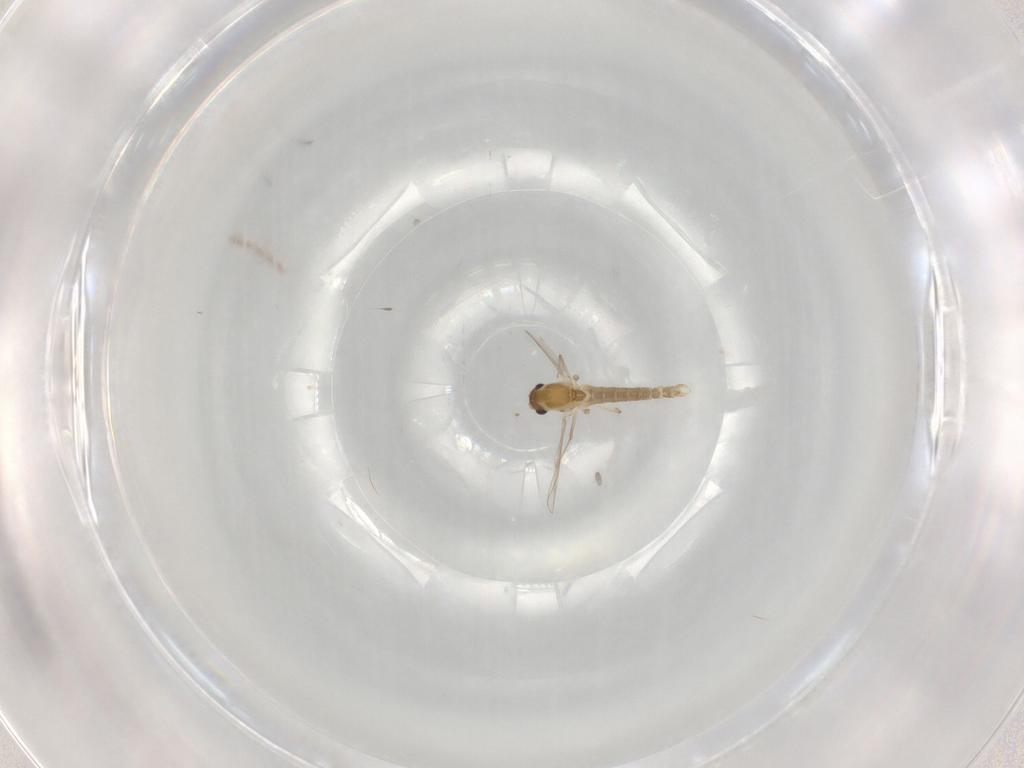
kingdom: Animalia
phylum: Arthropoda
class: Insecta
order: Diptera
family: Chironomidae
